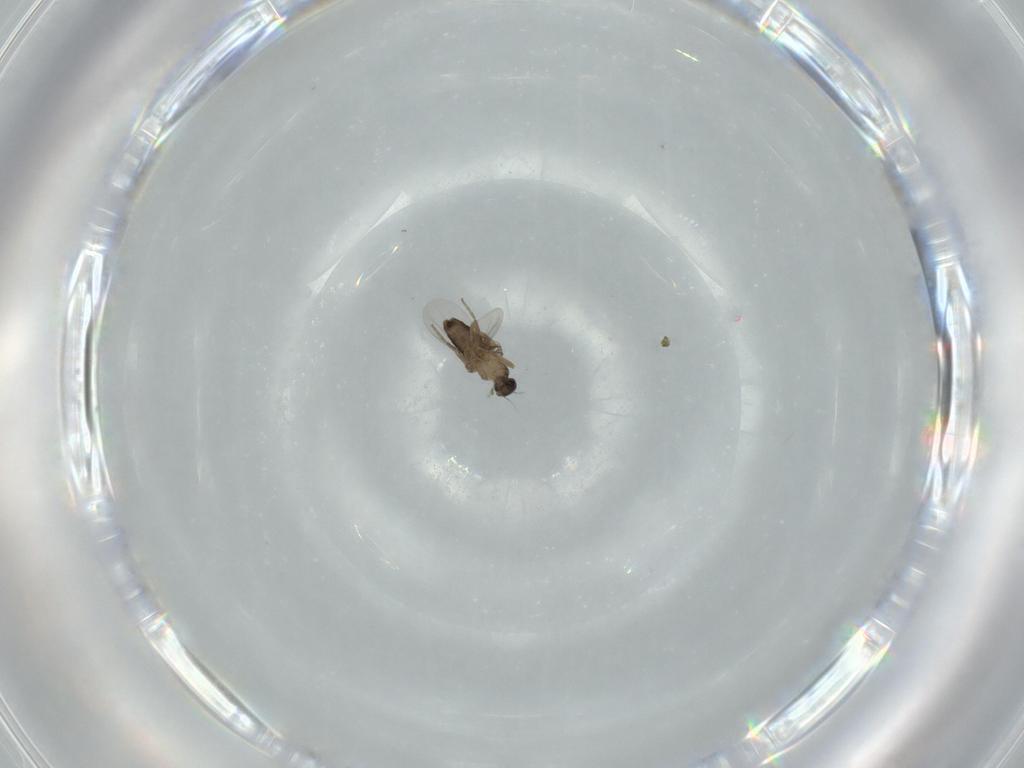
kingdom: Animalia
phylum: Arthropoda
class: Insecta
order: Diptera
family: Phoridae
